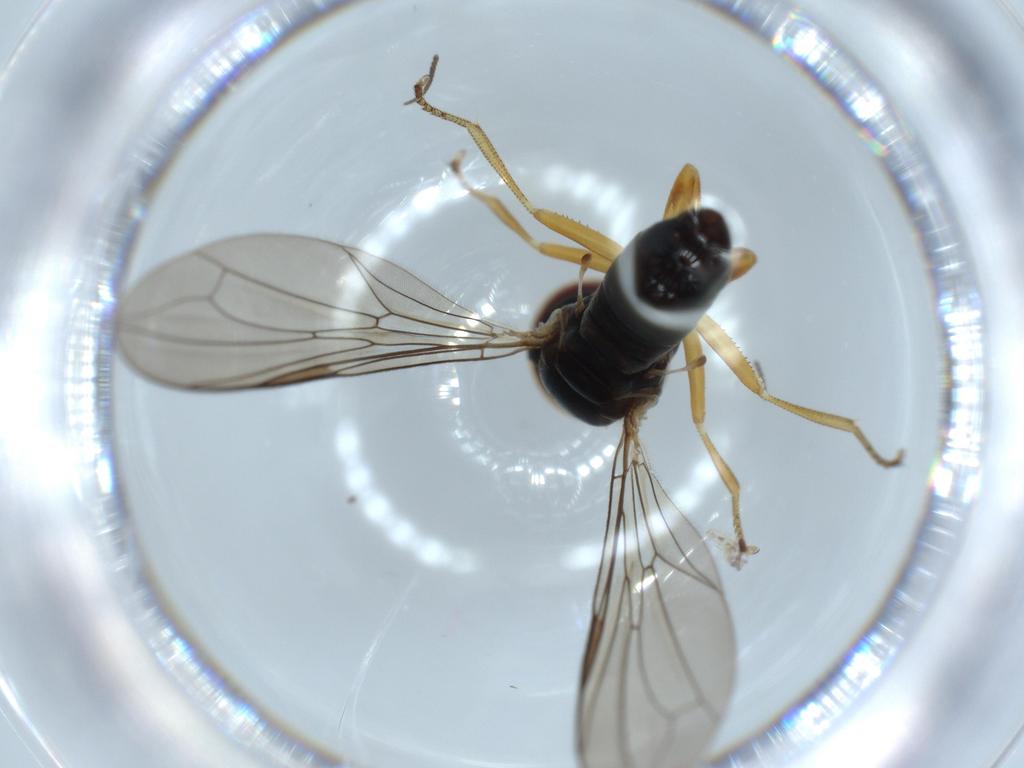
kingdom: Animalia
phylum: Arthropoda
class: Insecta
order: Diptera
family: Pipunculidae
